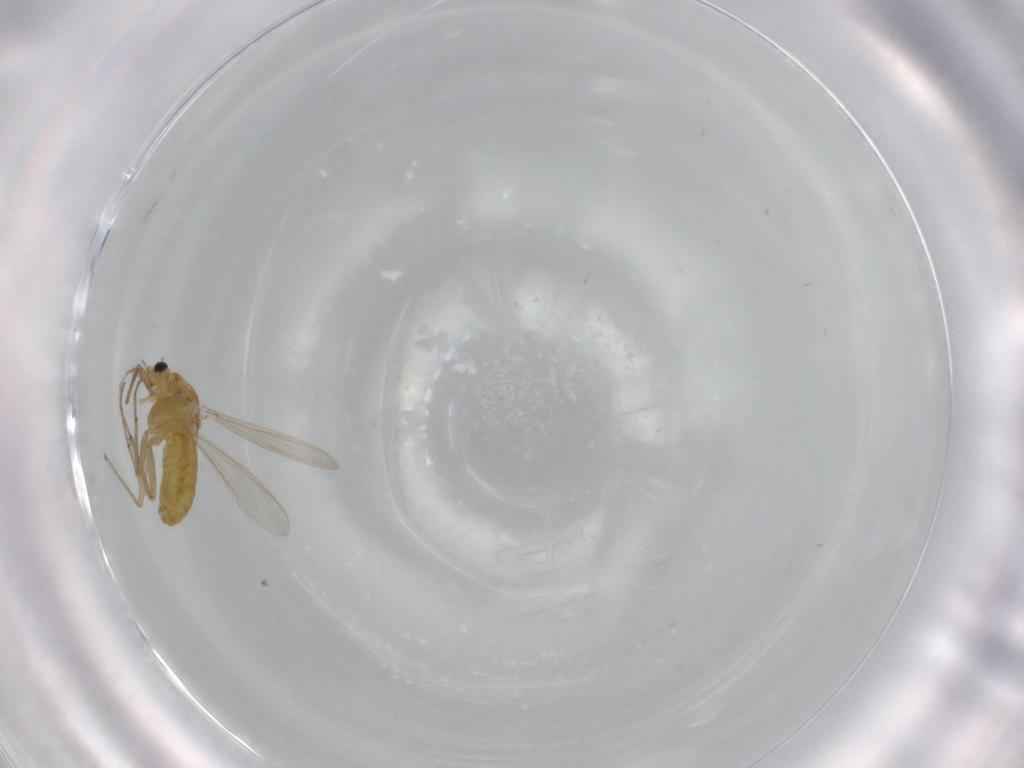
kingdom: Animalia
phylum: Arthropoda
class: Insecta
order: Diptera
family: Chironomidae
